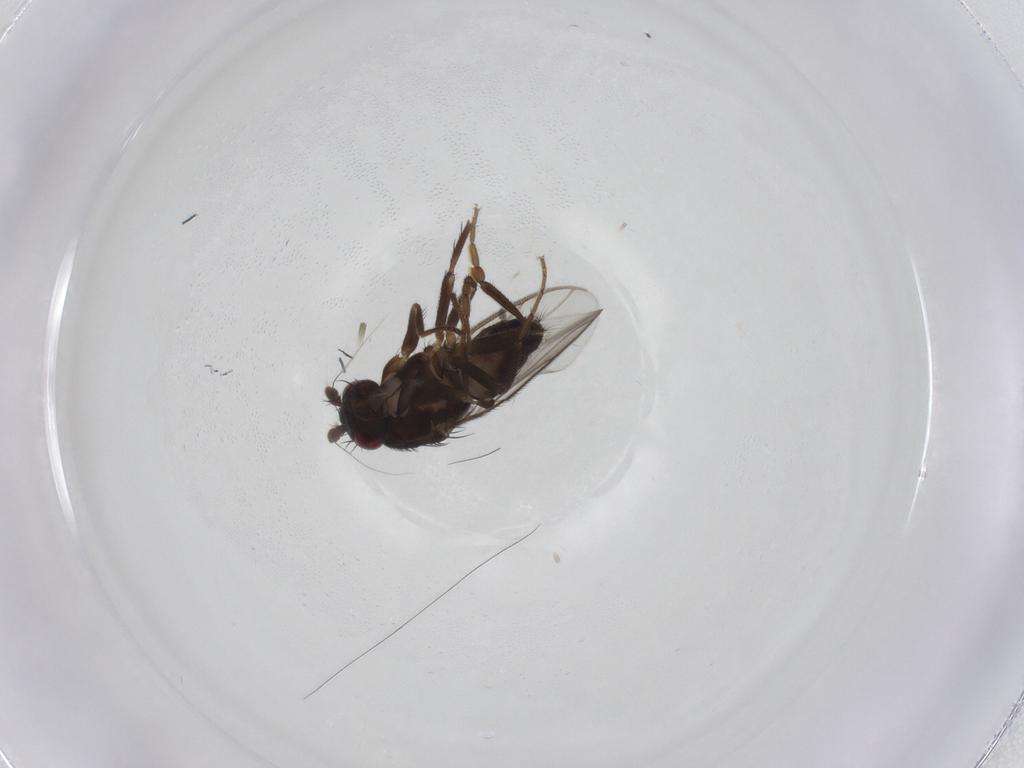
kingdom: Animalia
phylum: Arthropoda
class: Insecta
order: Diptera
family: Sphaeroceridae
